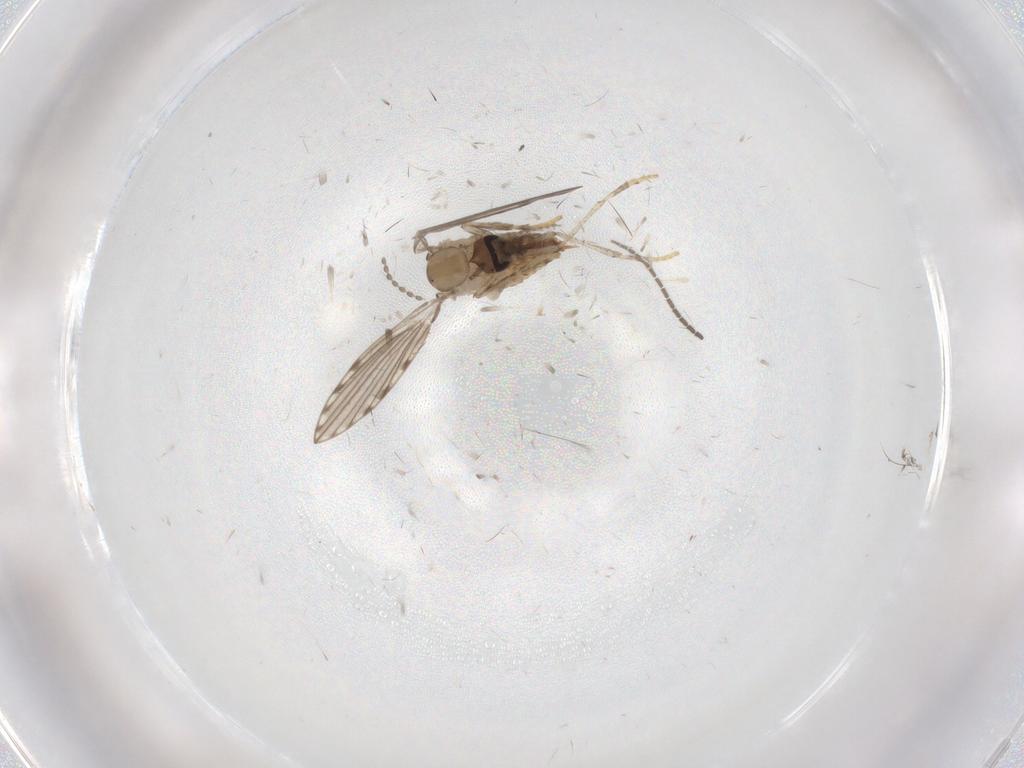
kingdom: Animalia
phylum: Arthropoda
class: Insecta
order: Diptera
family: Psychodidae
